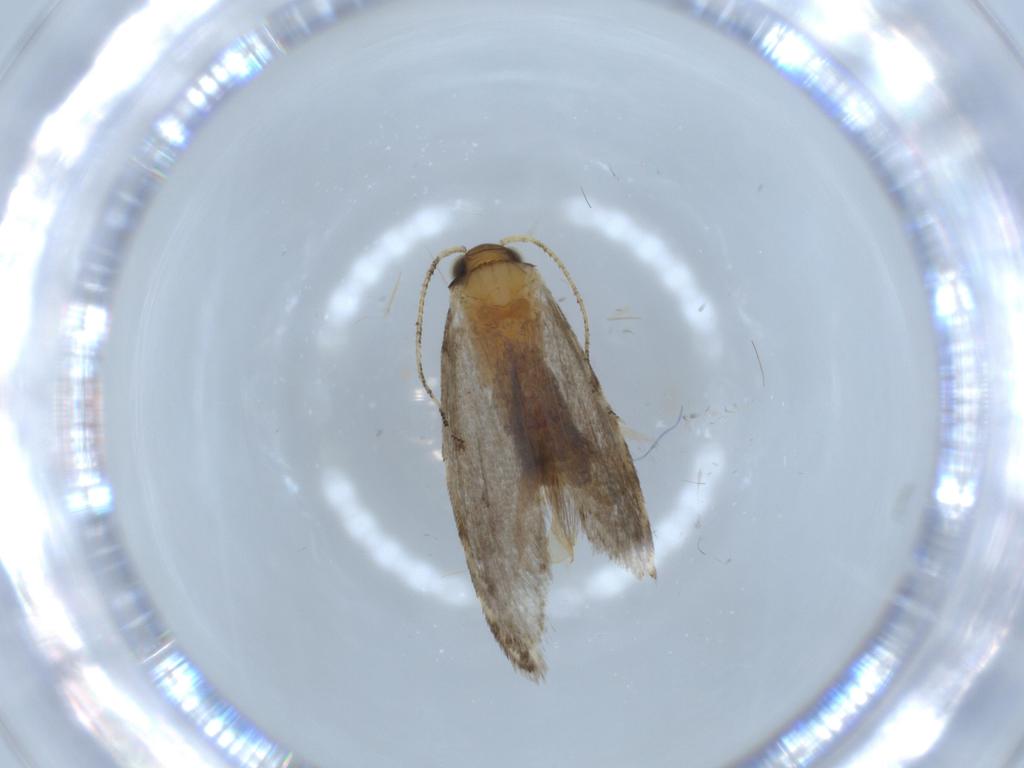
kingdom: Animalia
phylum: Arthropoda
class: Insecta
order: Lepidoptera
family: Tineidae
